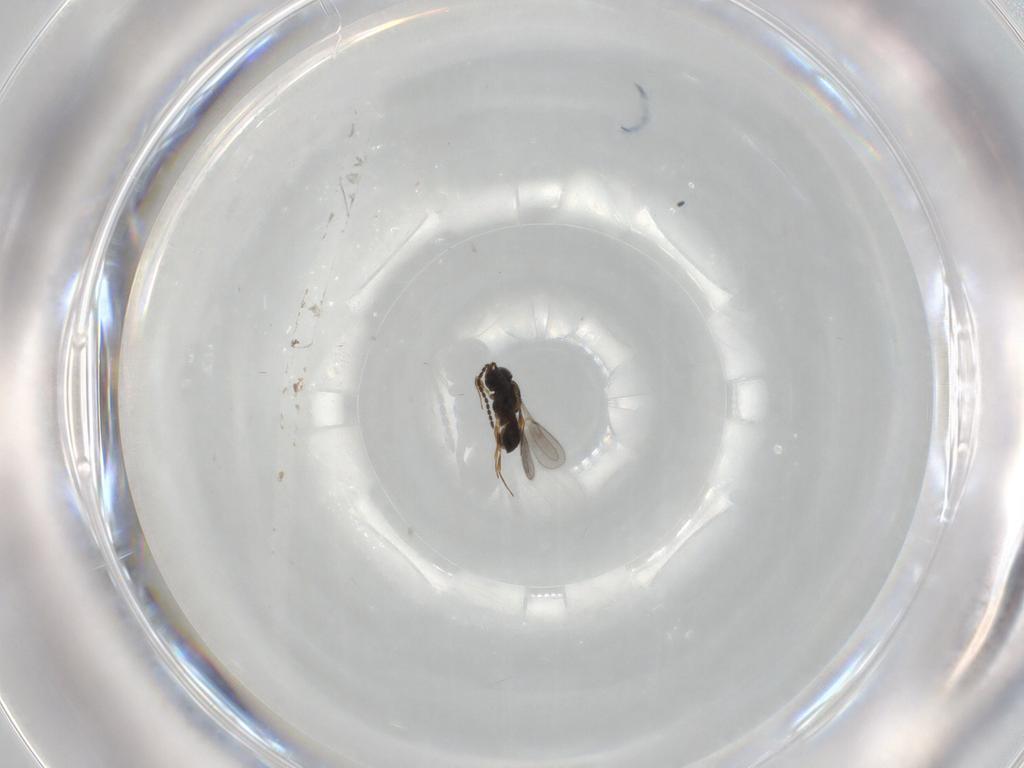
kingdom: Animalia
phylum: Arthropoda
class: Insecta
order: Hymenoptera
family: Scelionidae
